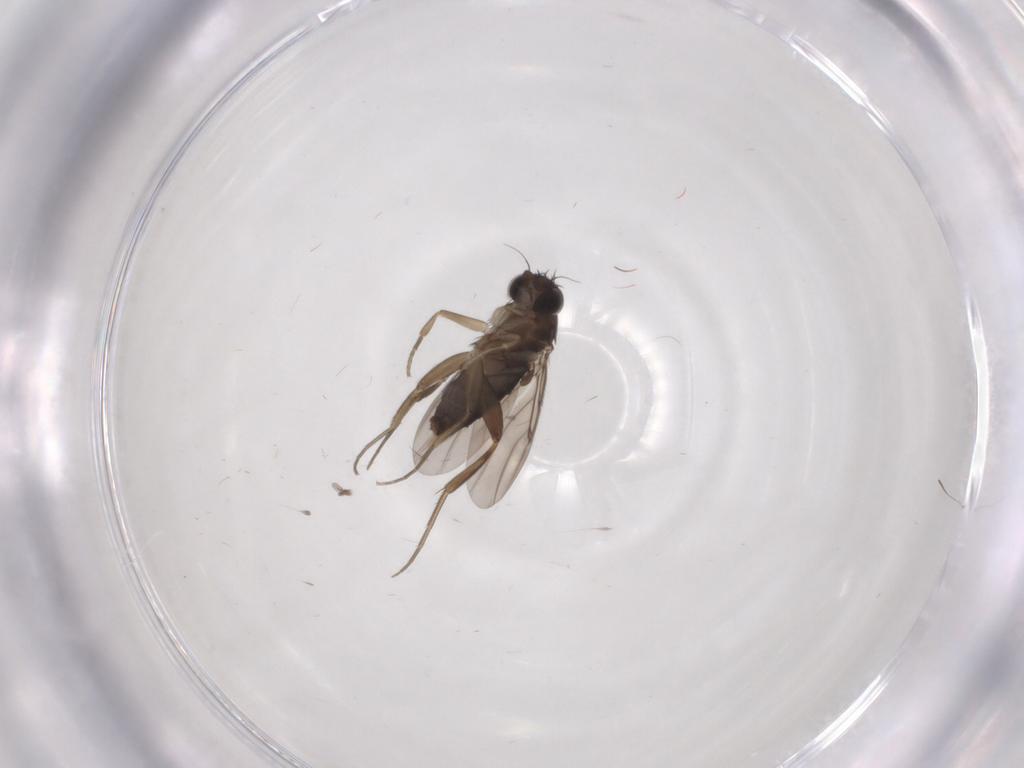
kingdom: Animalia
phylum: Arthropoda
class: Insecta
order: Diptera
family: Phoridae
